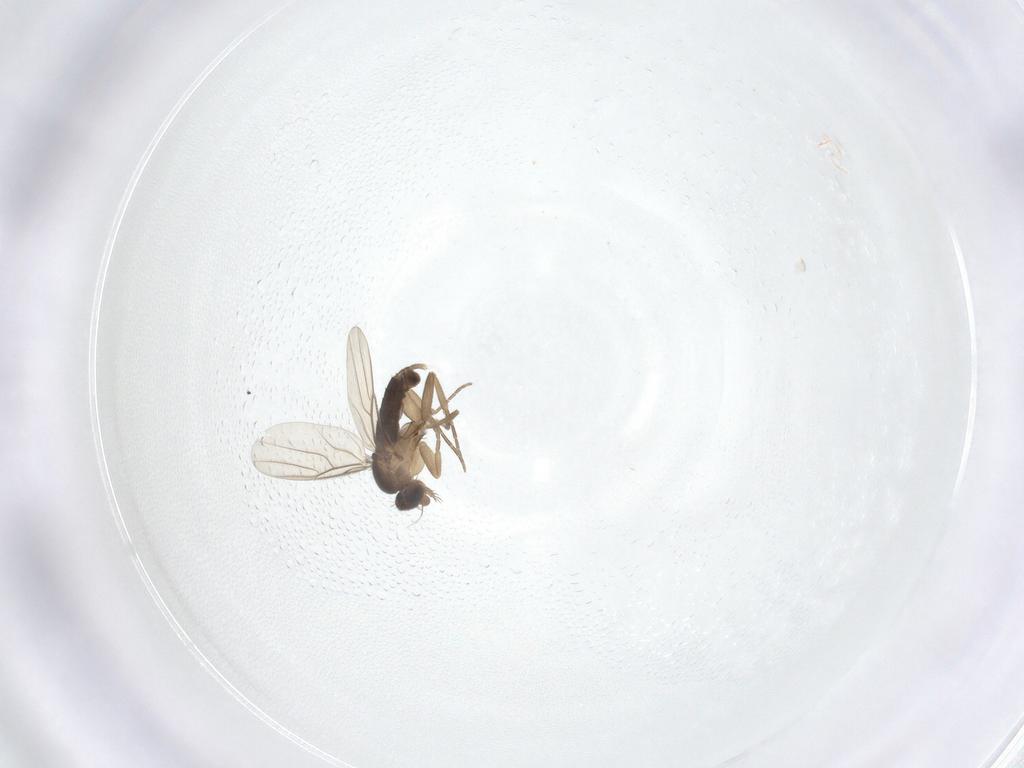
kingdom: Animalia
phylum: Arthropoda
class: Insecta
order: Diptera
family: Phoridae
